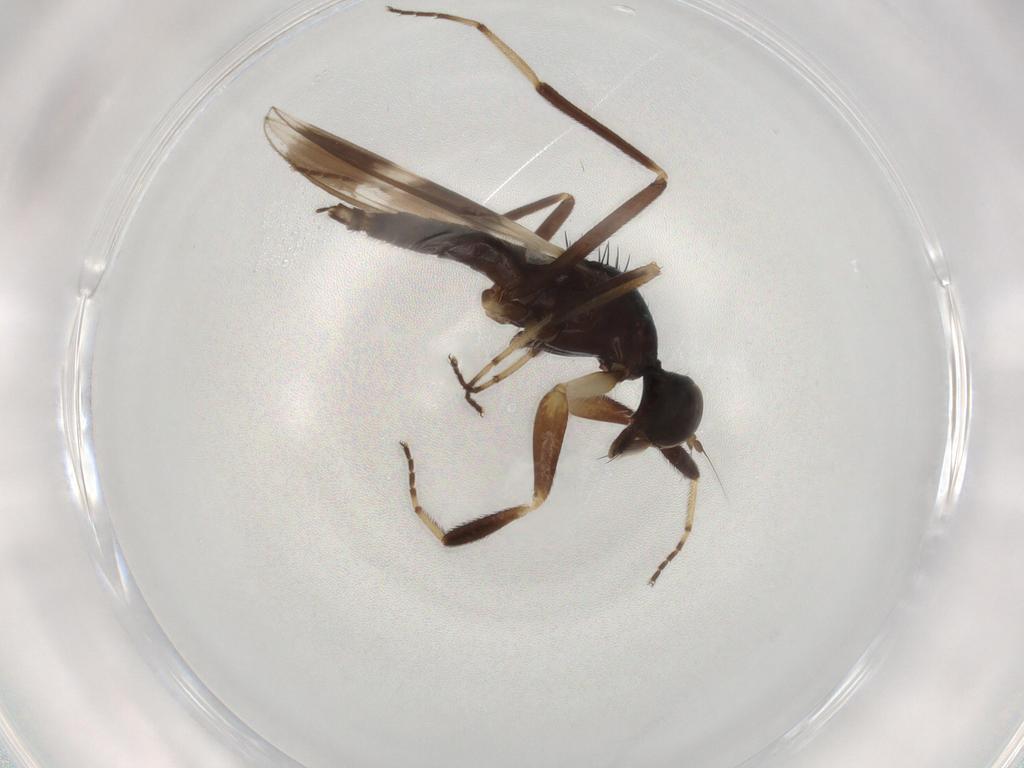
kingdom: Animalia
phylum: Arthropoda
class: Insecta
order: Diptera
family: Hybotidae
